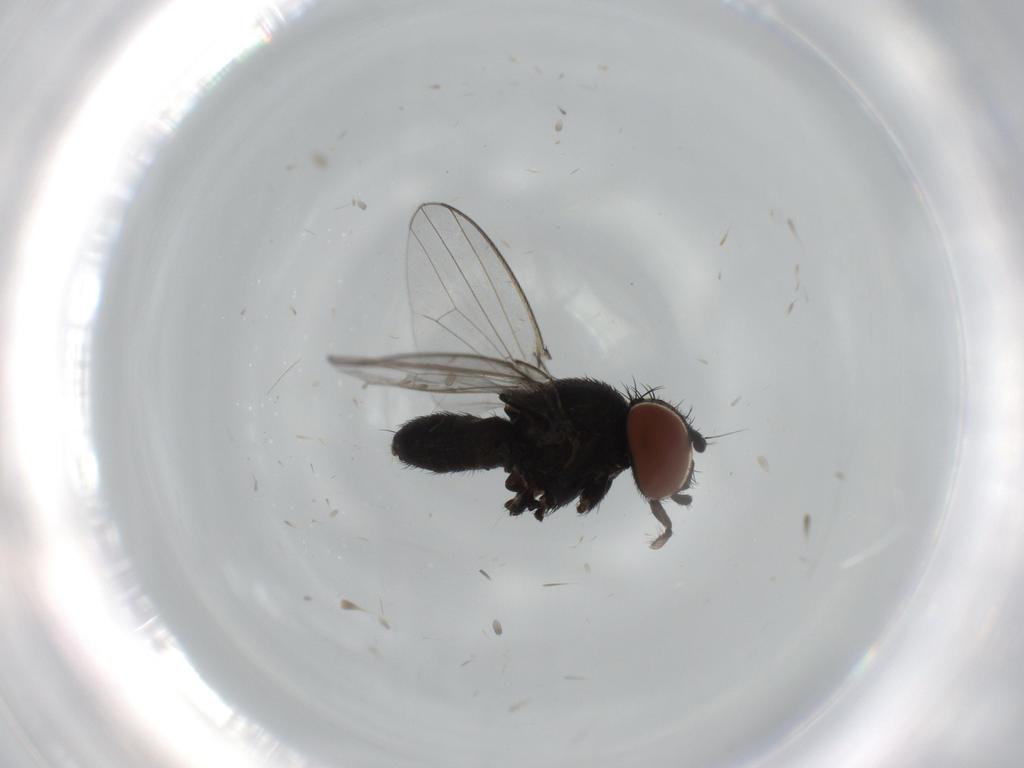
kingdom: Animalia
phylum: Arthropoda
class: Insecta
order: Diptera
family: Milichiidae
